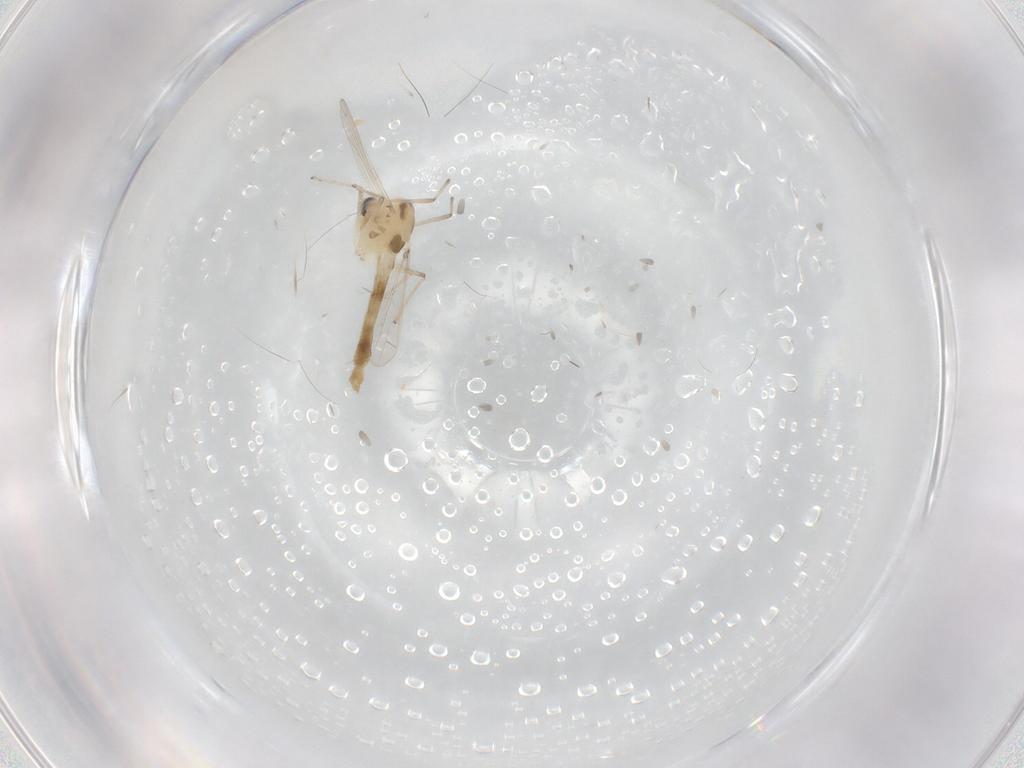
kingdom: Animalia
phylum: Arthropoda
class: Insecta
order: Diptera
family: Chironomidae
